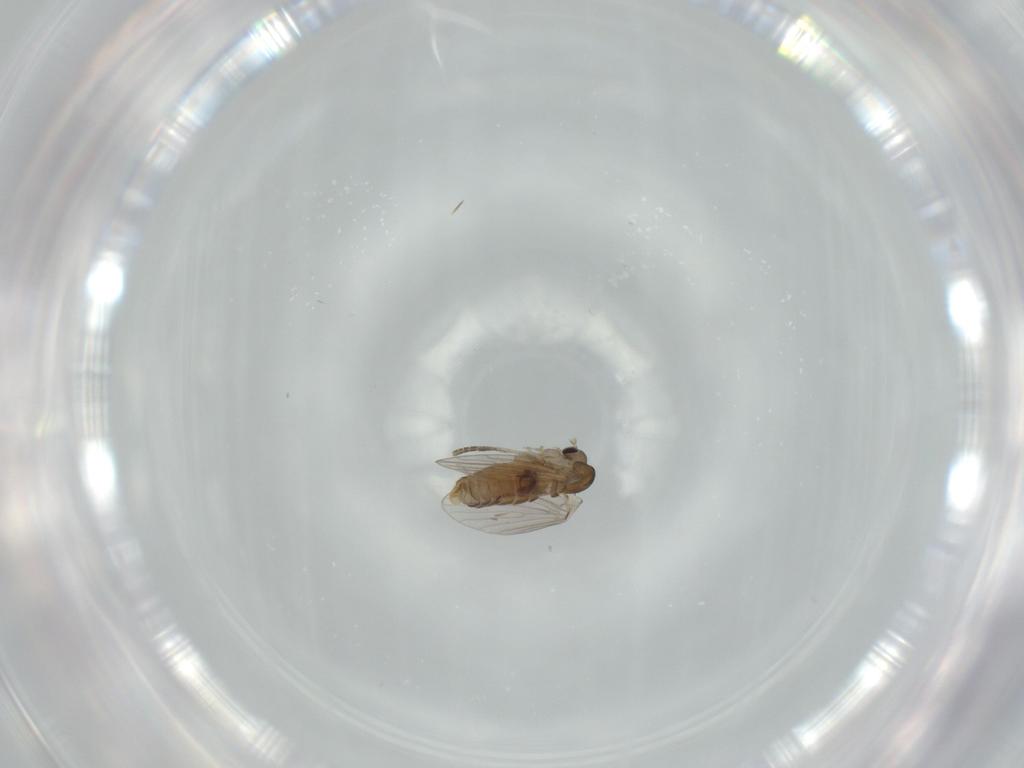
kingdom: Animalia
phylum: Arthropoda
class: Insecta
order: Diptera
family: Psychodidae
